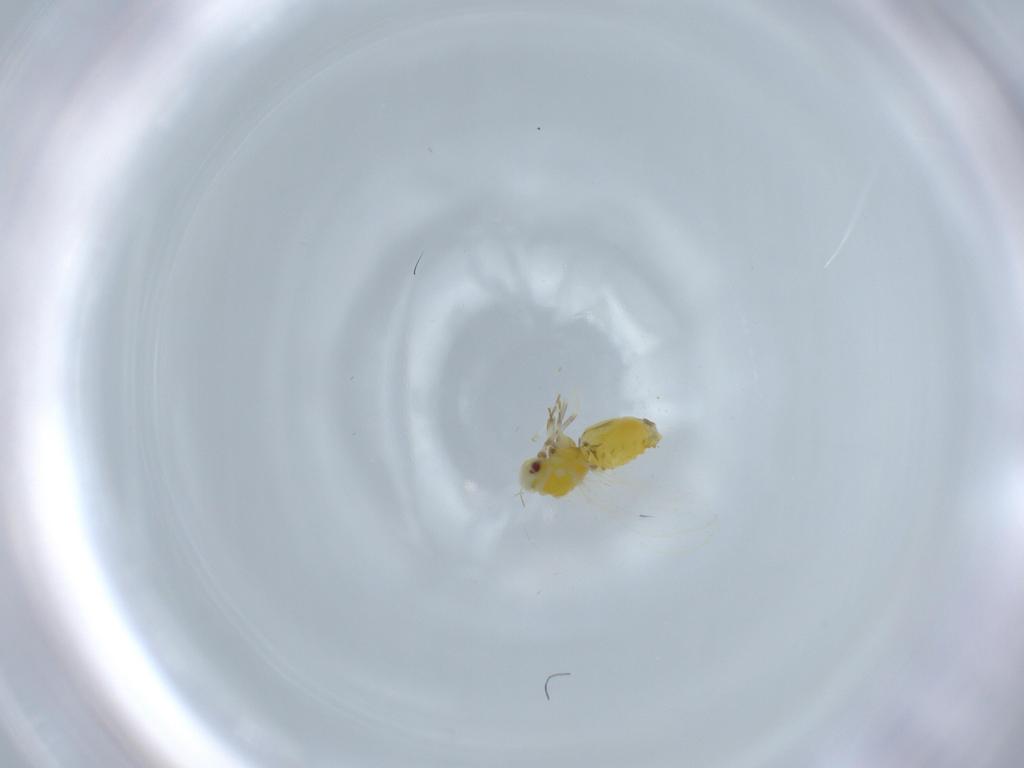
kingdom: Animalia
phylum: Arthropoda
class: Insecta
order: Hemiptera
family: Aleyrodidae
